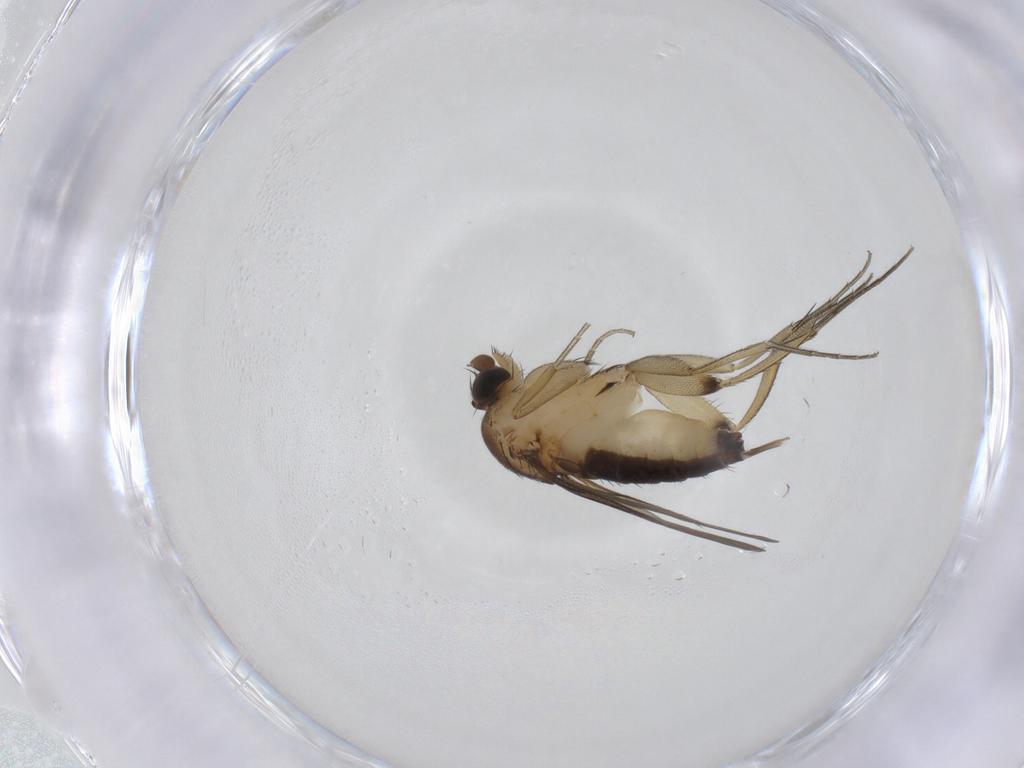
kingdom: Animalia
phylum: Arthropoda
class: Insecta
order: Diptera
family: Phoridae
